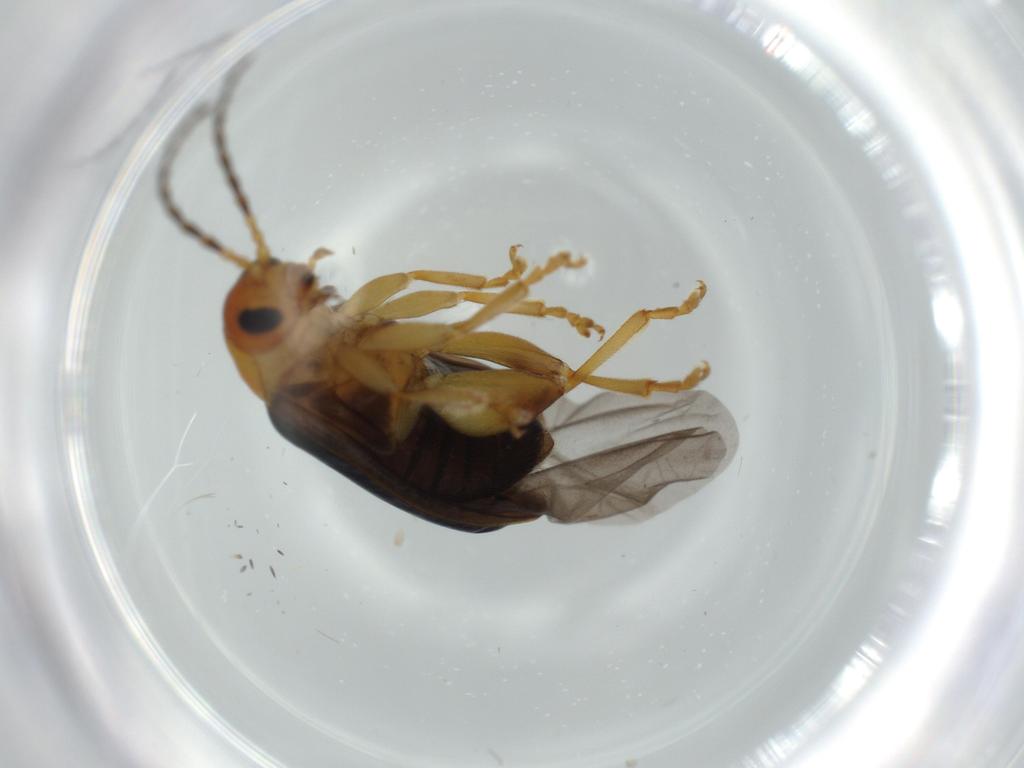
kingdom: Animalia
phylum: Arthropoda
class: Insecta
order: Coleoptera
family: Chrysomelidae
